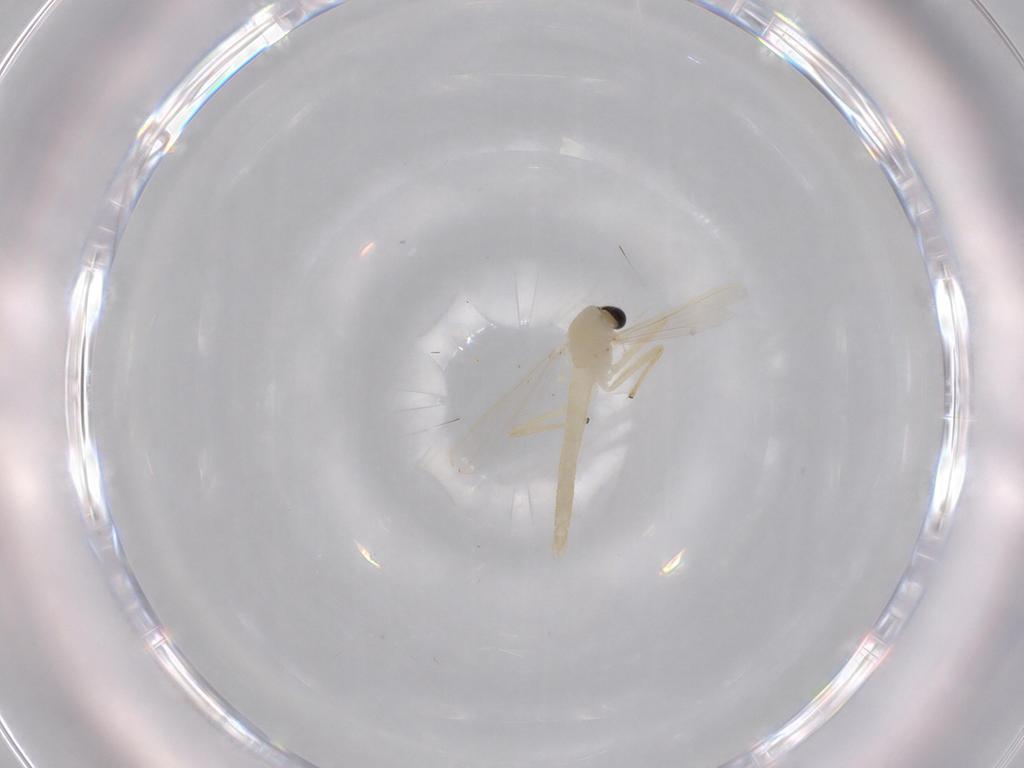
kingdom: Animalia
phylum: Arthropoda
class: Insecta
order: Diptera
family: Chironomidae
